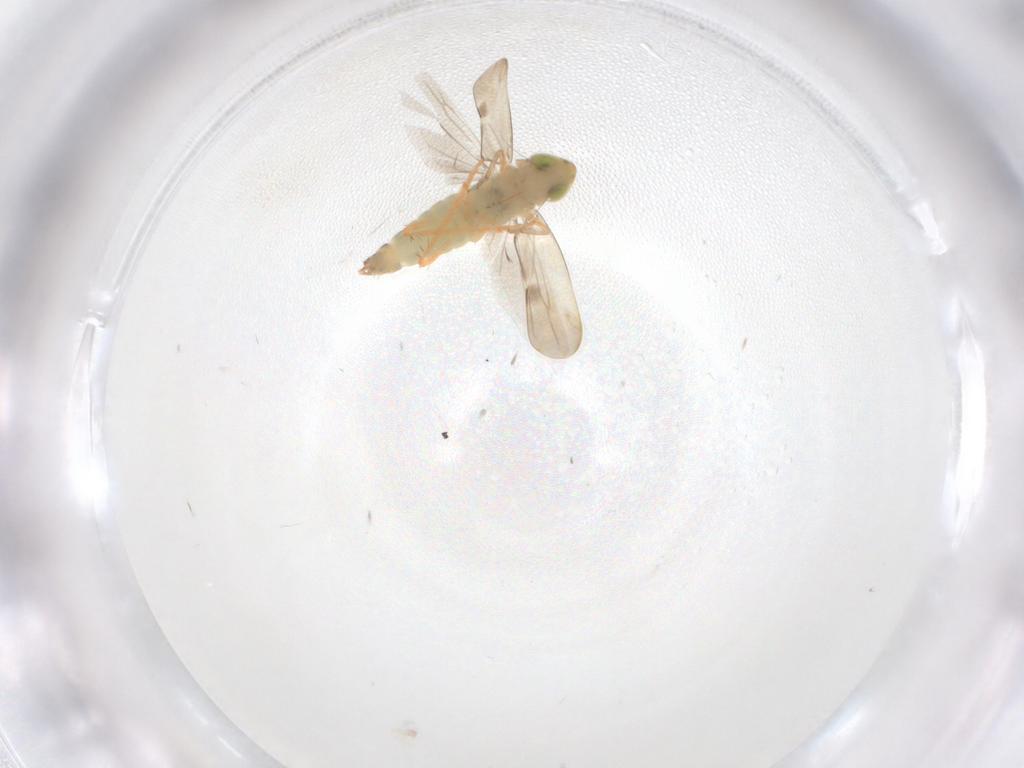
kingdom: Animalia
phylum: Arthropoda
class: Insecta
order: Hemiptera
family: Cicadellidae
